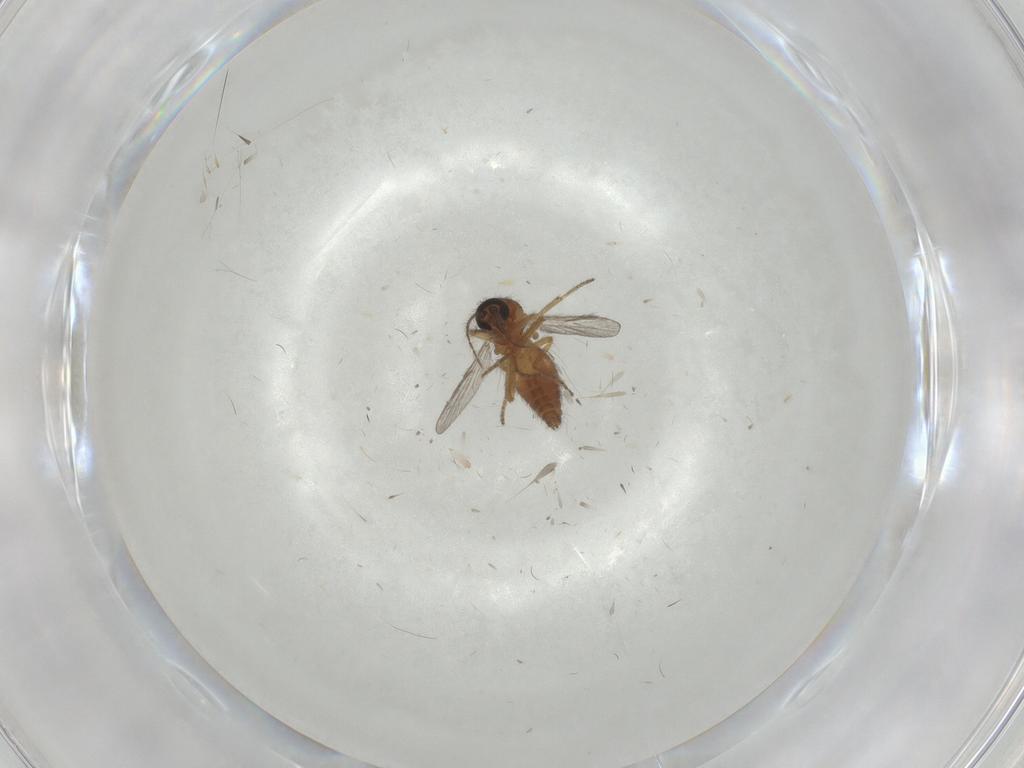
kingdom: Animalia
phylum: Arthropoda
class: Insecta
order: Diptera
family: Ceratopogonidae
